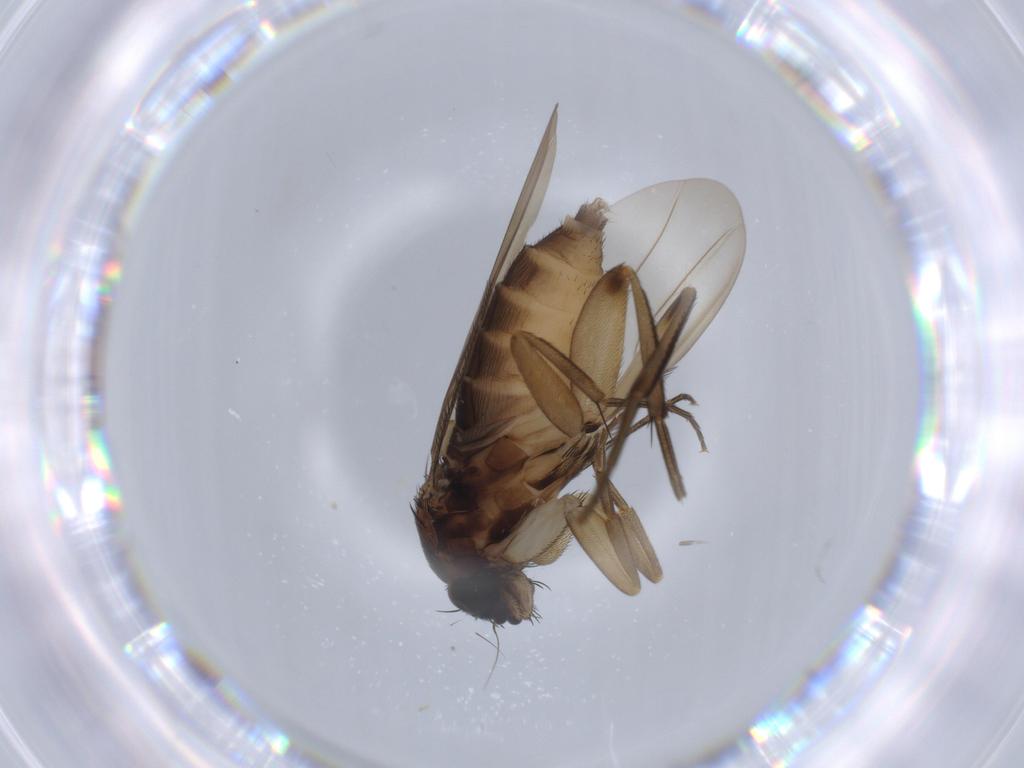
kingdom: Animalia
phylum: Arthropoda
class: Insecta
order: Diptera
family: Phoridae
